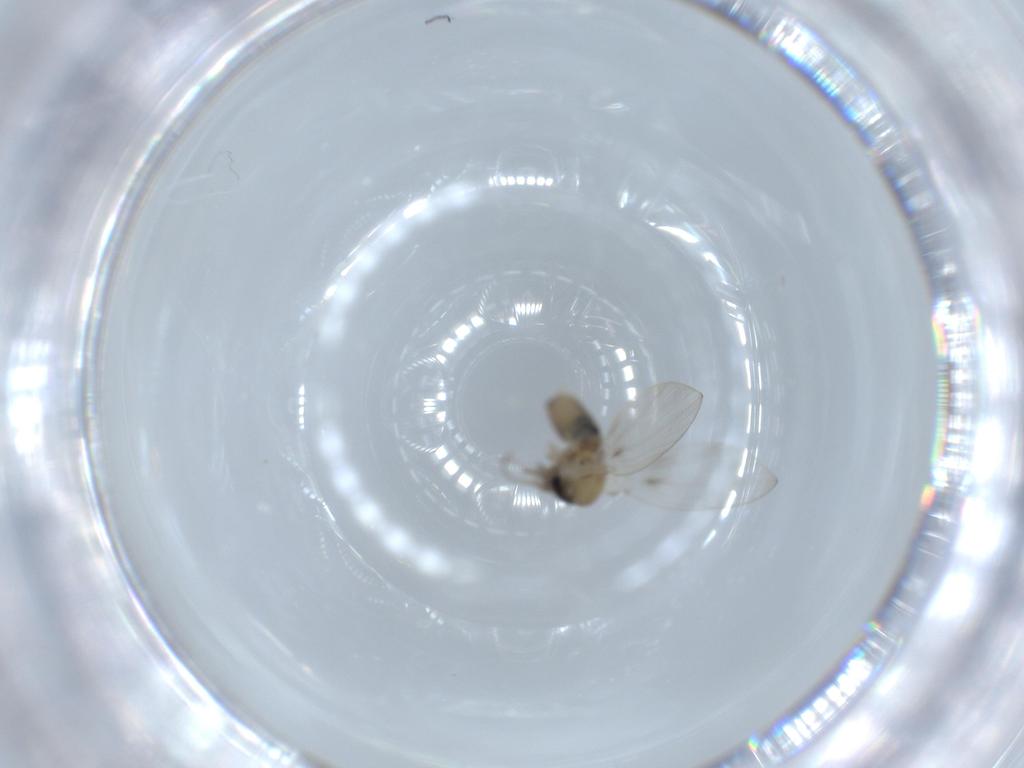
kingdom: Animalia
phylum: Arthropoda
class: Insecta
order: Diptera
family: Psychodidae
